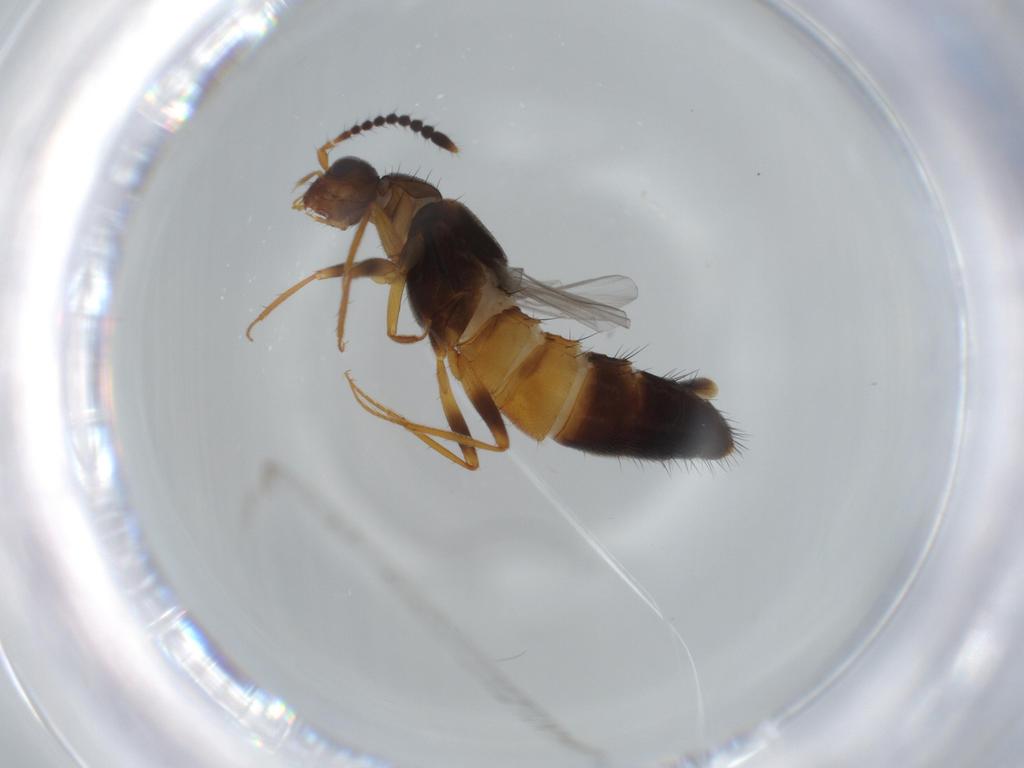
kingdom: Animalia
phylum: Arthropoda
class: Insecta
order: Coleoptera
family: Staphylinidae
